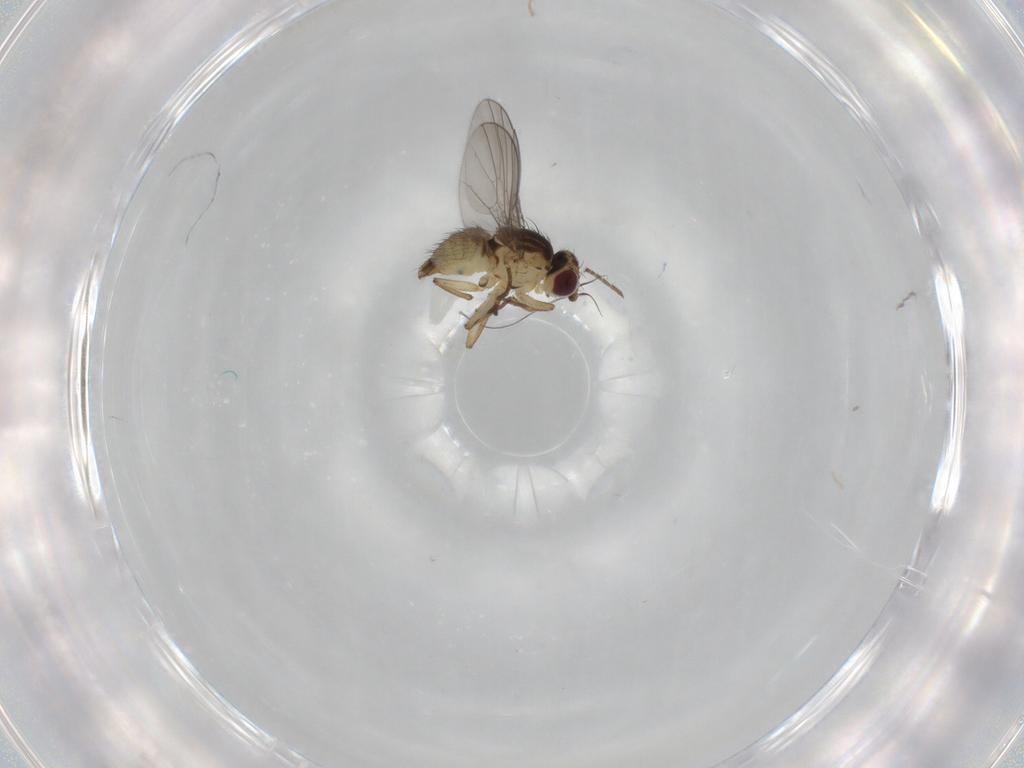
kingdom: Animalia
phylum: Arthropoda
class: Insecta
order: Diptera
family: Agromyzidae
